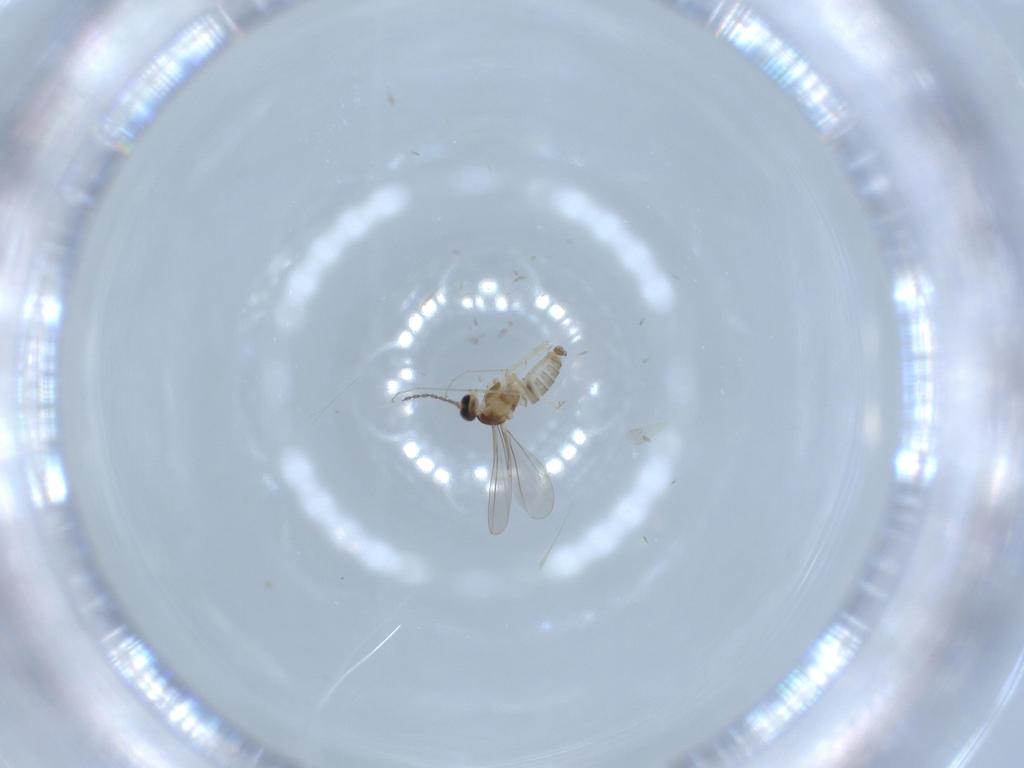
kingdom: Animalia
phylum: Arthropoda
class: Insecta
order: Diptera
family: Cecidomyiidae
